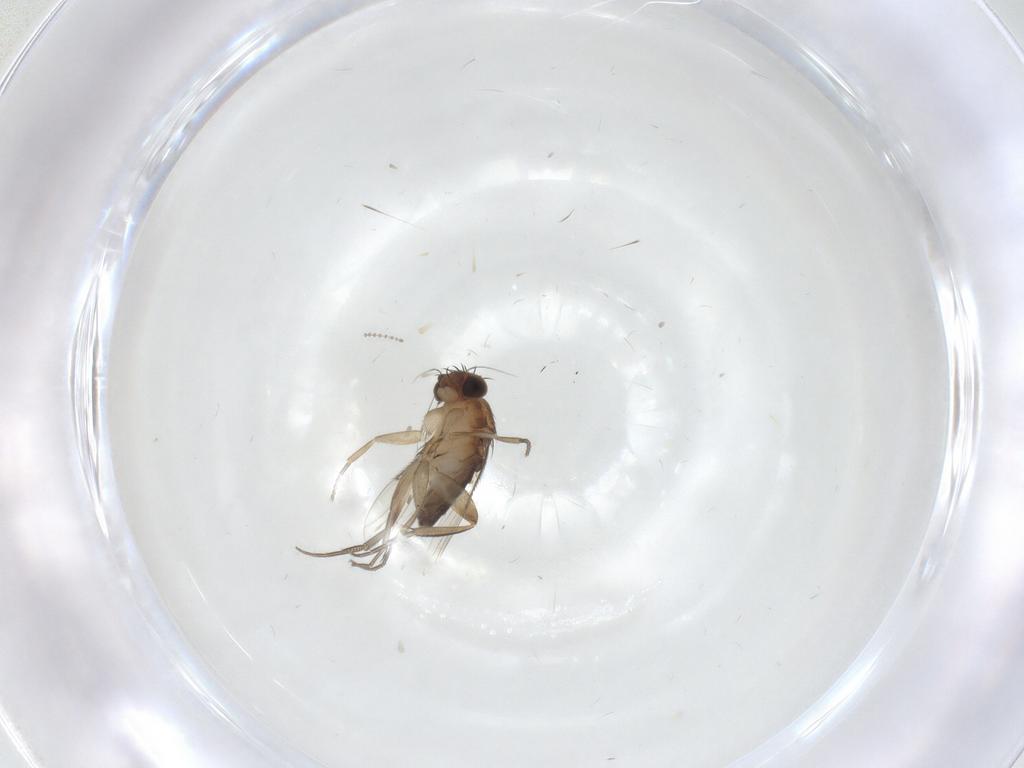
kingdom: Animalia
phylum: Arthropoda
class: Insecta
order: Diptera
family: Phoridae
